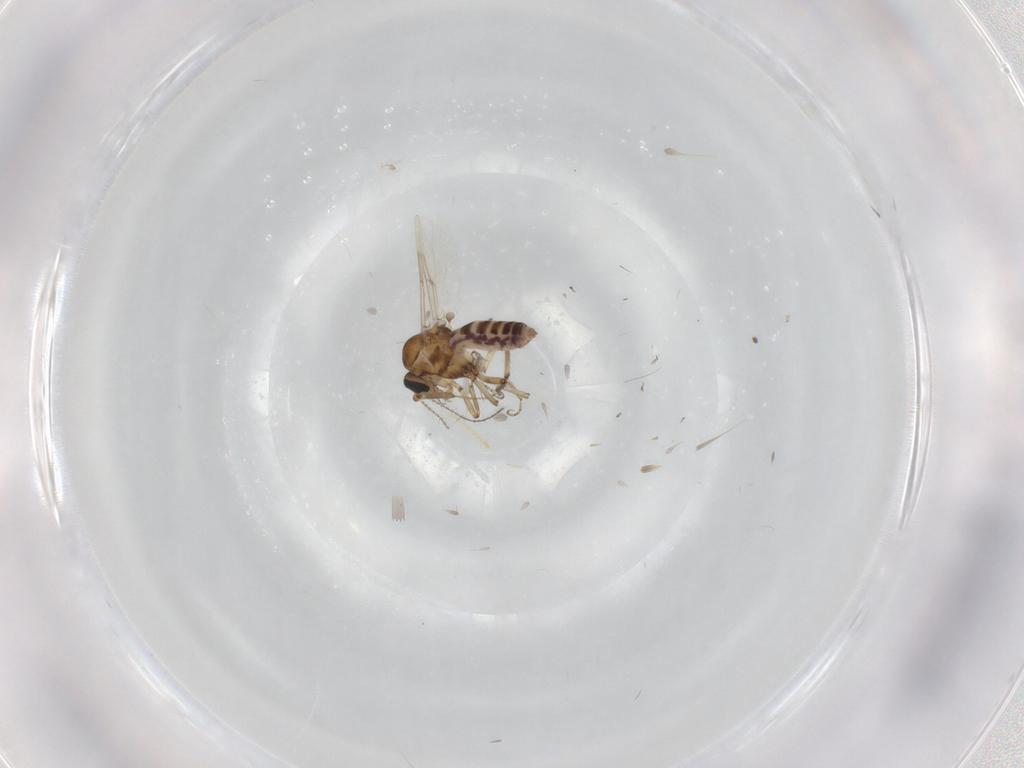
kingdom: Animalia
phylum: Arthropoda
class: Insecta
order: Diptera
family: Ceratopogonidae
